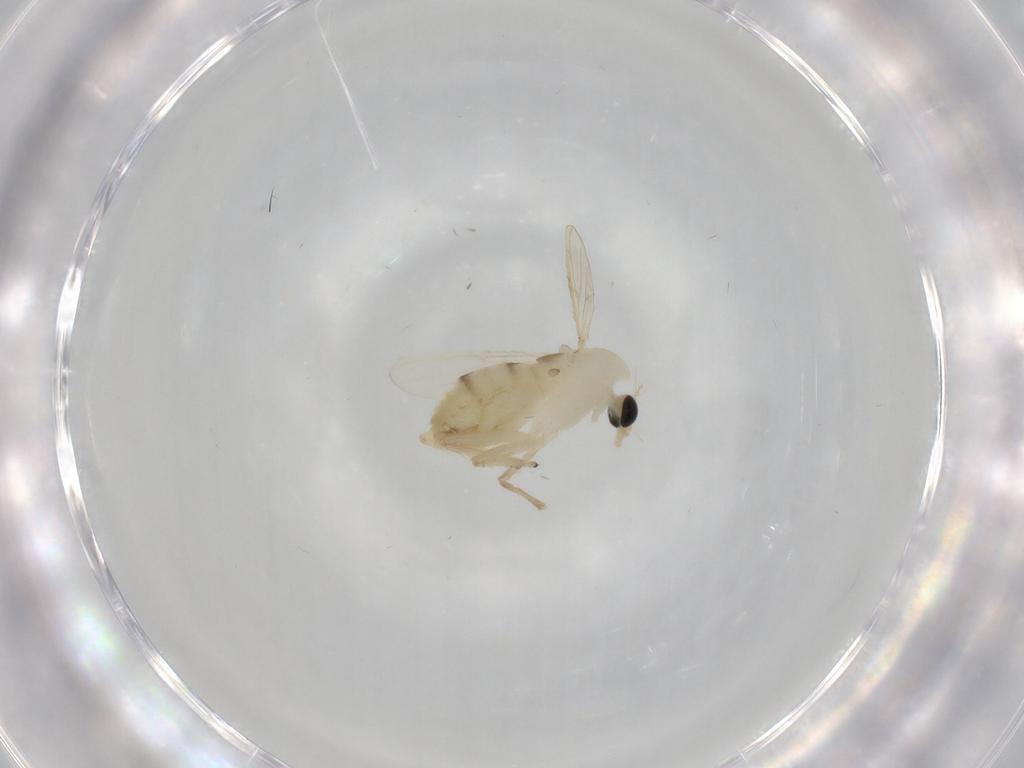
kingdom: Animalia
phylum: Arthropoda
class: Insecta
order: Diptera
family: Chironomidae
